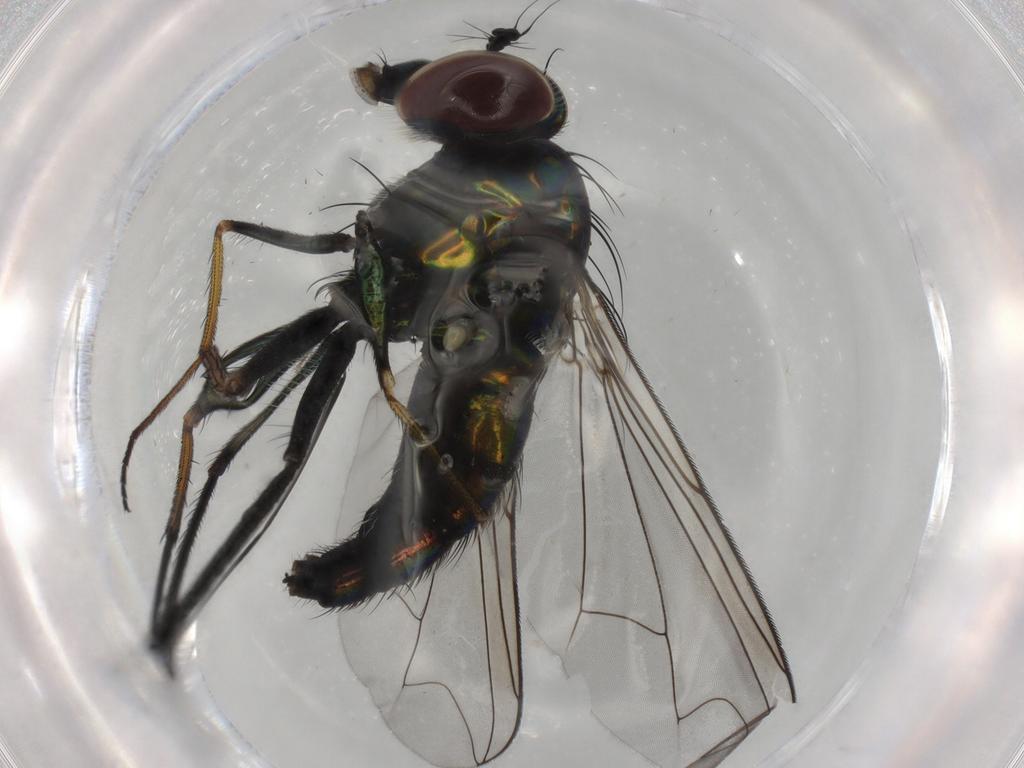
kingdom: Animalia
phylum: Arthropoda
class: Insecta
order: Diptera
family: Dolichopodidae
